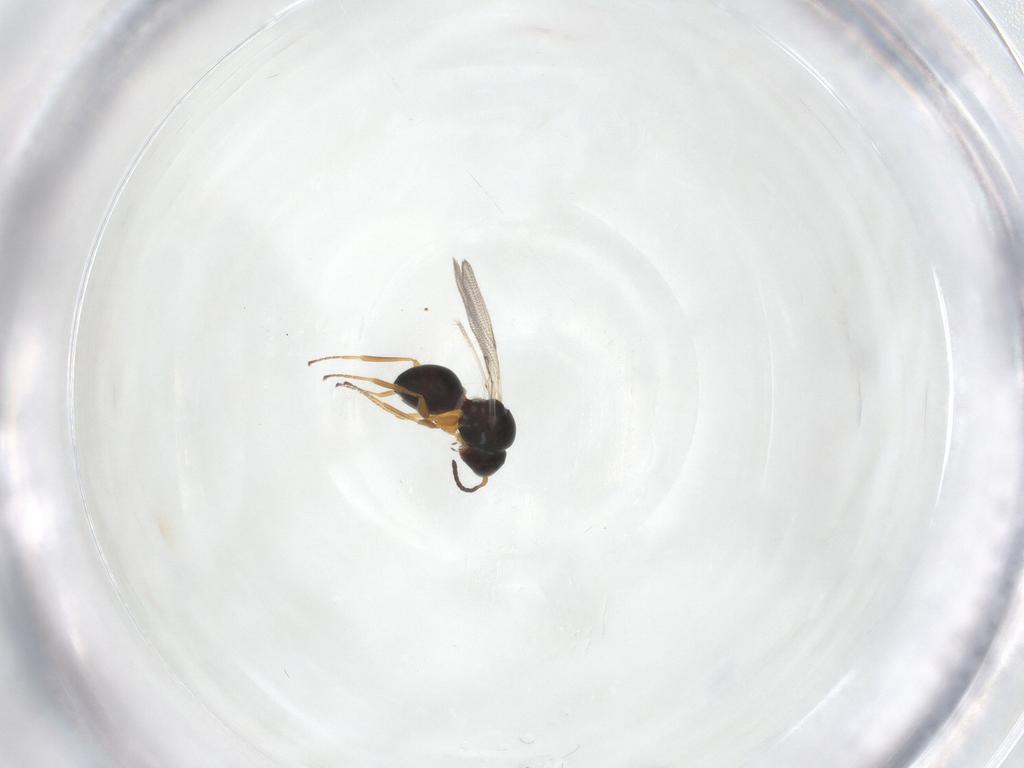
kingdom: Animalia
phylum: Arthropoda
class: Insecta
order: Hymenoptera
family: Figitidae
